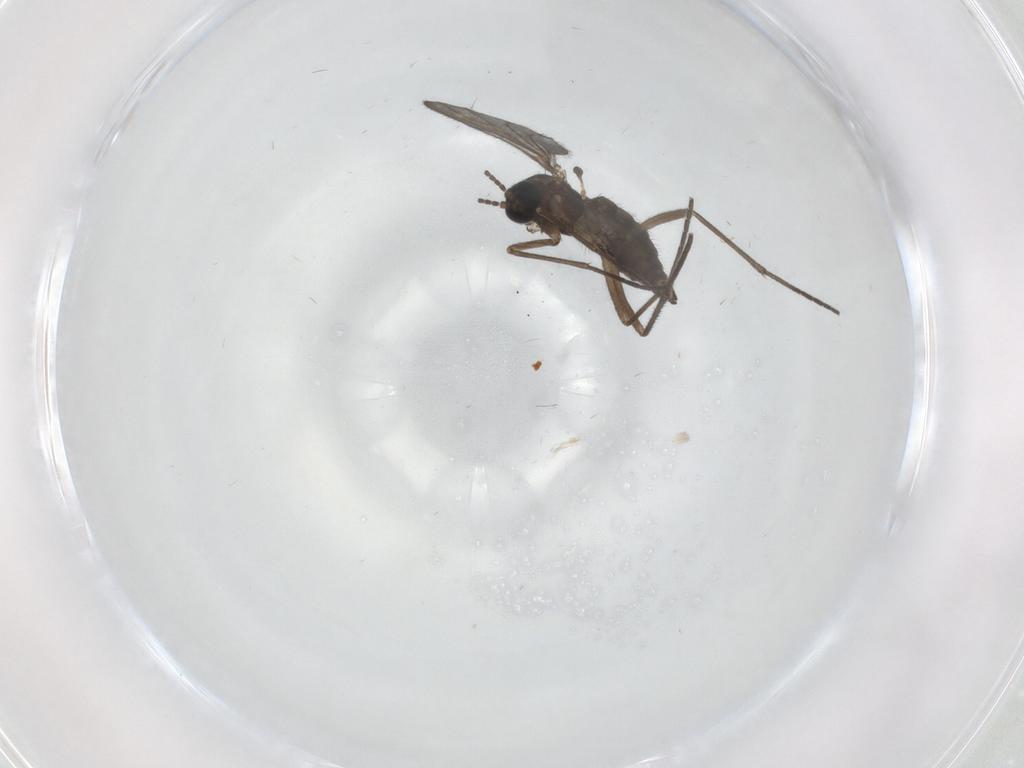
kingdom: Animalia
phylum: Arthropoda
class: Insecta
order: Diptera
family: Sciaridae
